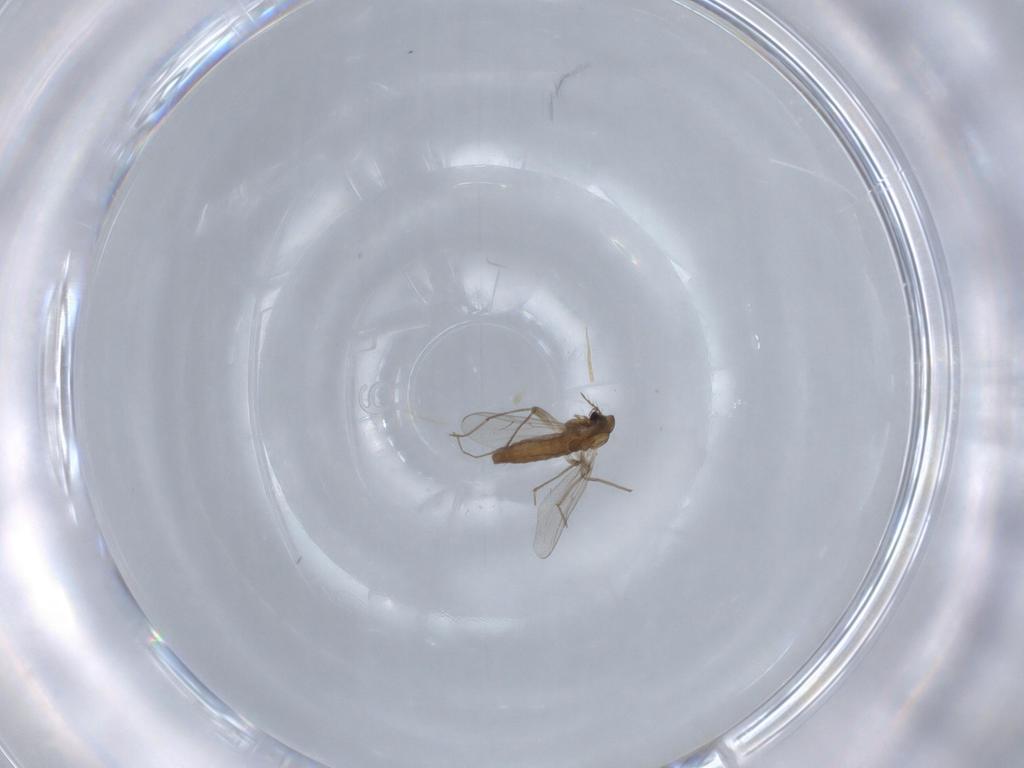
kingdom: Animalia
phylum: Arthropoda
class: Insecta
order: Diptera
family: Chironomidae
